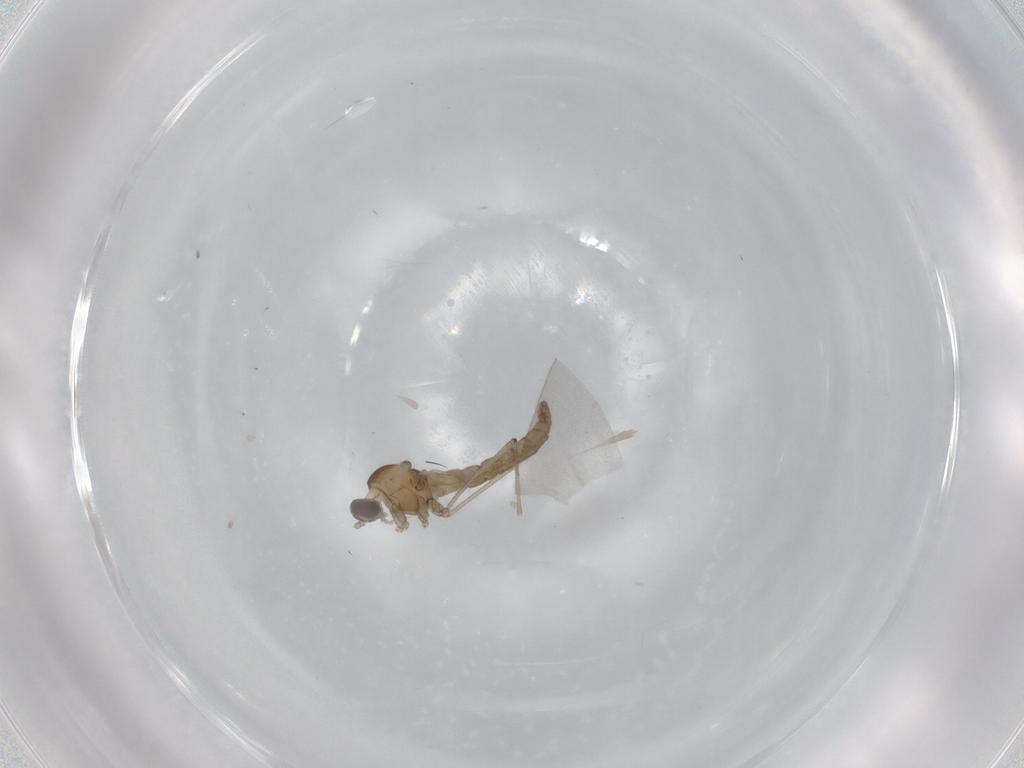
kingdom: Animalia
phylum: Arthropoda
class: Insecta
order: Diptera
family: Cecidomyiidae
